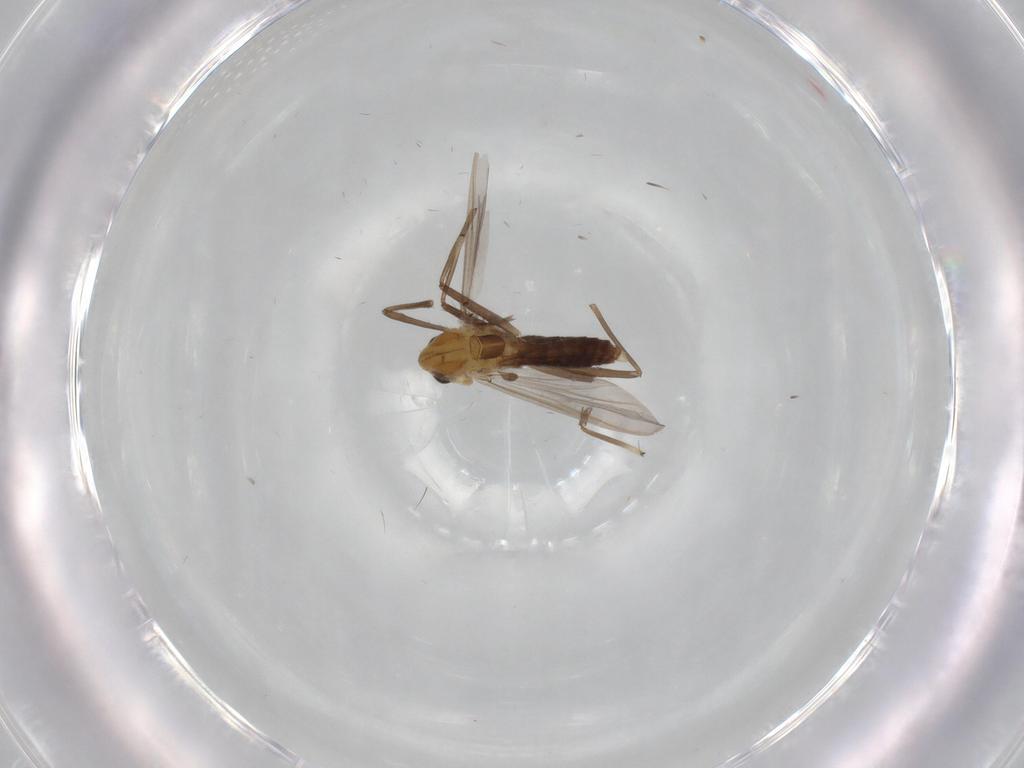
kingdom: Animalia
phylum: Arthropoda
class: Insecta
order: Diptera
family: Chironomidae
